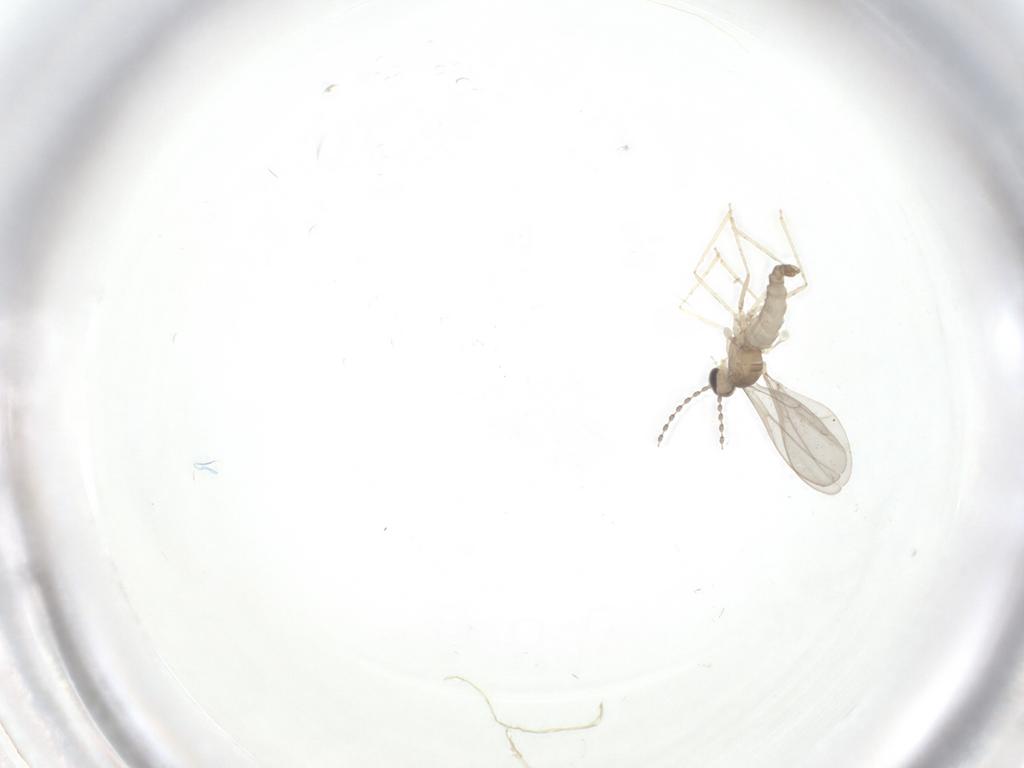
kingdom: Animalia
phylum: Arthropoda
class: Insecta
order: Diptera
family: Cecidomyiidae
